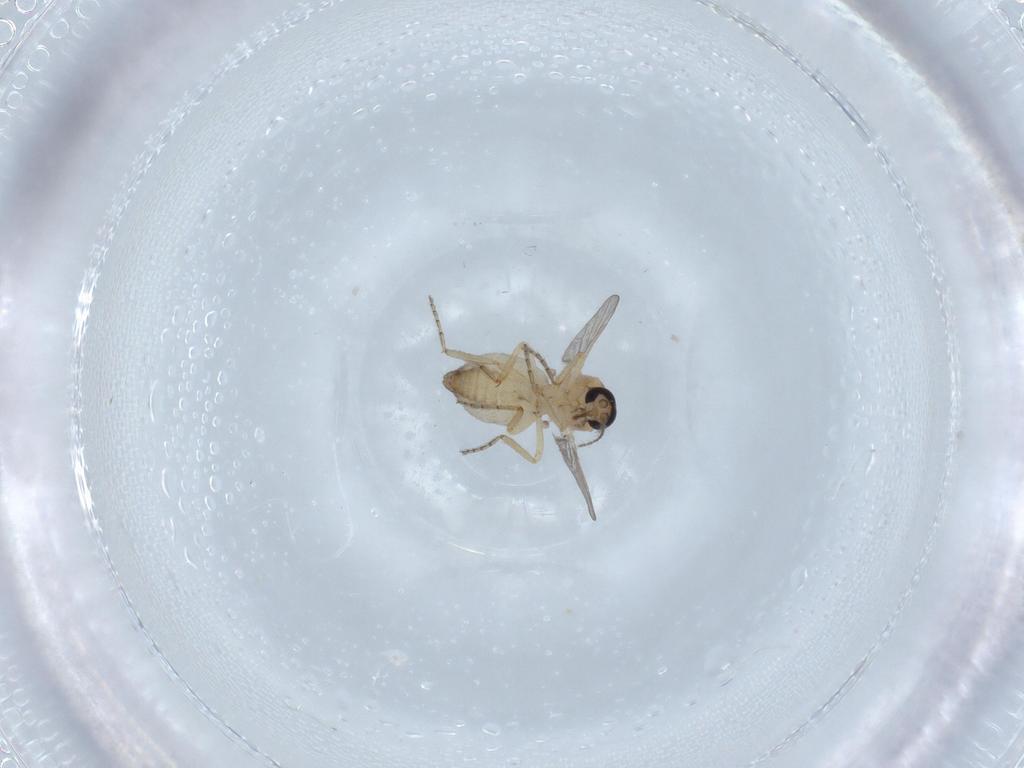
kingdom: Animalia
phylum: Arthropoda
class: Insecta
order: Diptera
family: Ceratopogonidae
